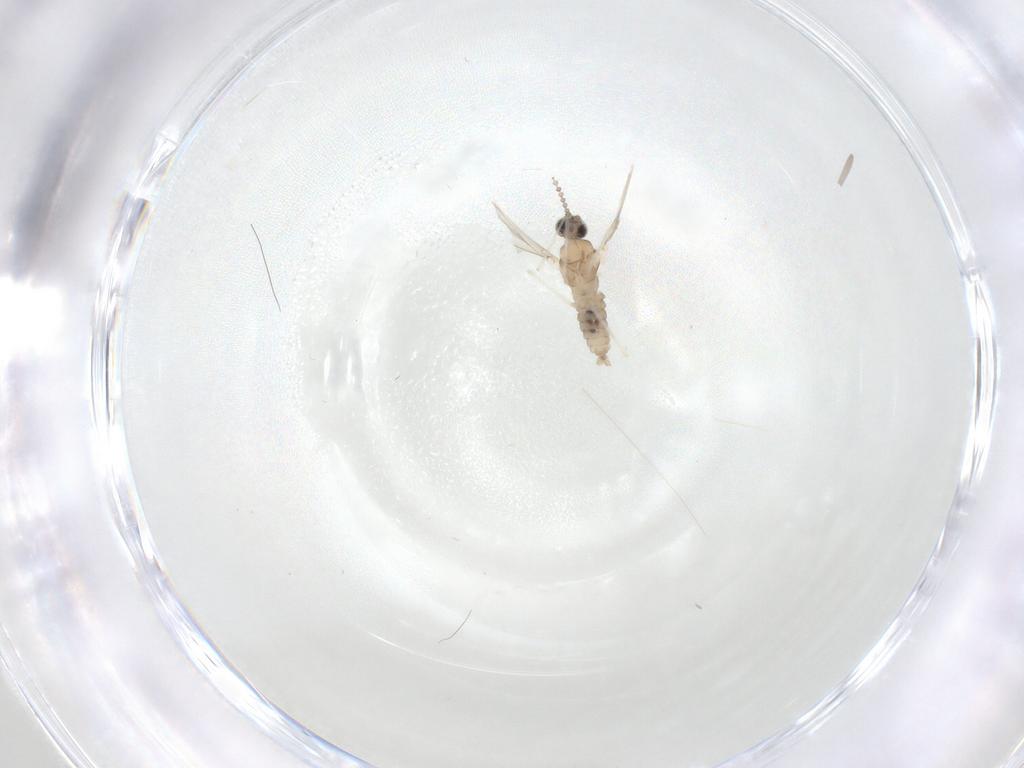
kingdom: Animalia
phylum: Arthropoda
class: Insecta
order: Diptera
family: Cecidomyiidae
